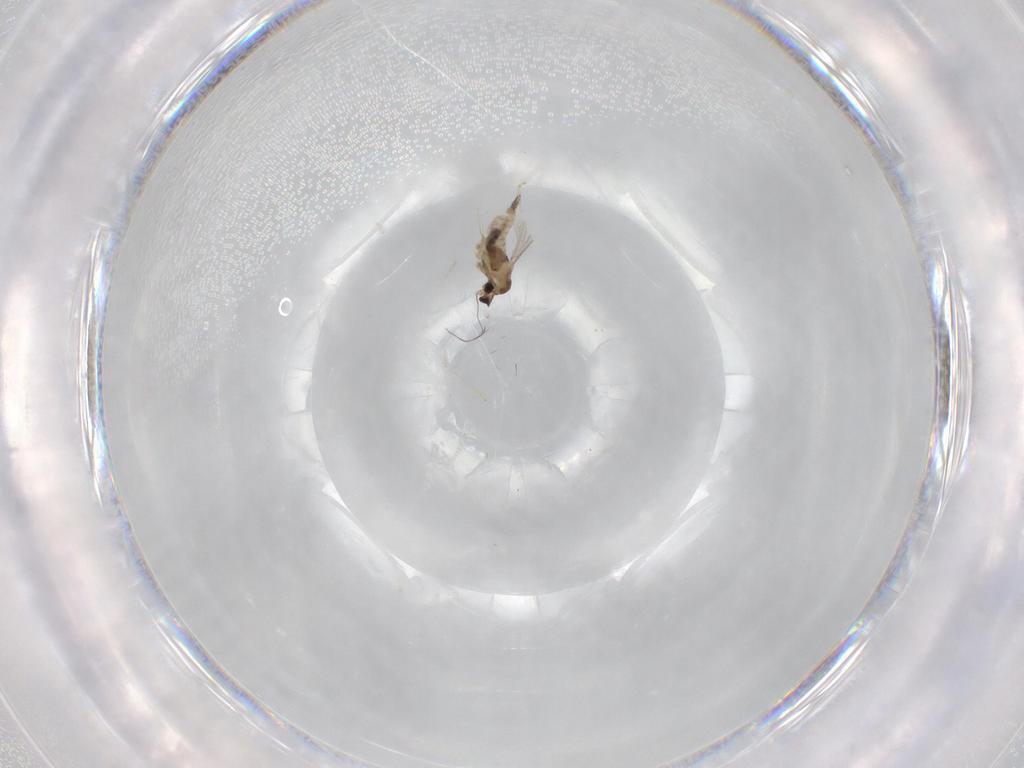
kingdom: Animalia
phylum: Arthropoda
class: Insecta
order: Diptera
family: Cecidomyiidae
